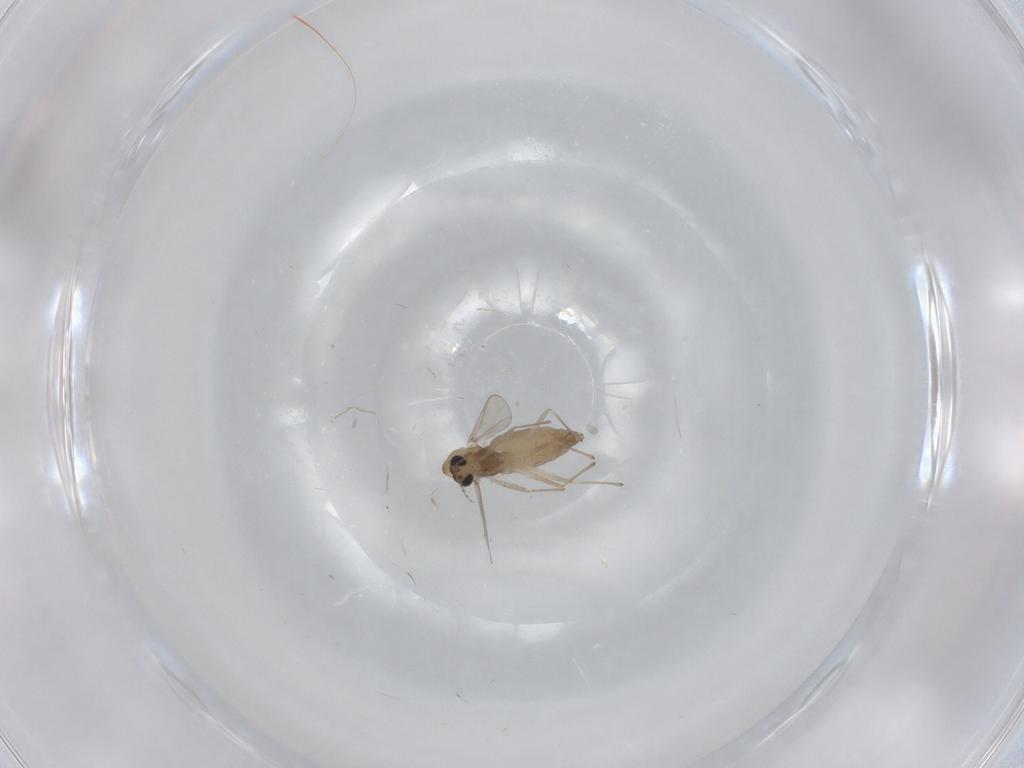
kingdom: Animalia
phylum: Arthropoda
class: Insecta
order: Diptera
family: Chironomidae
